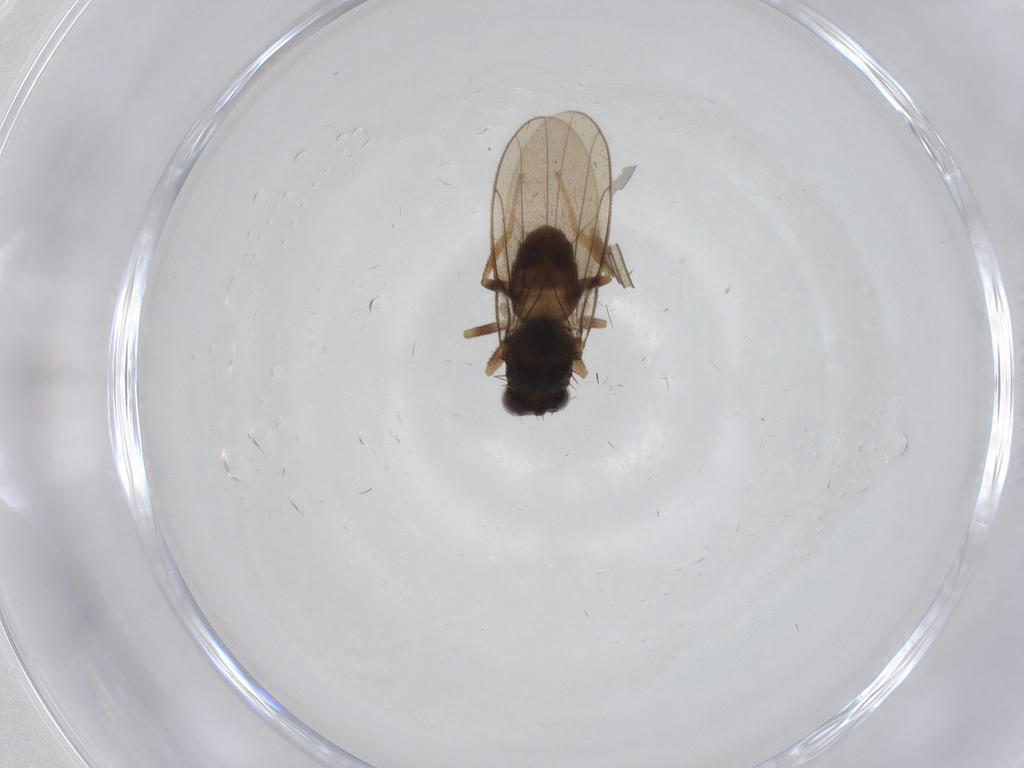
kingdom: Animalia
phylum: Arthropoda
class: Insecta
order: Diptera
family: Chloropidae
